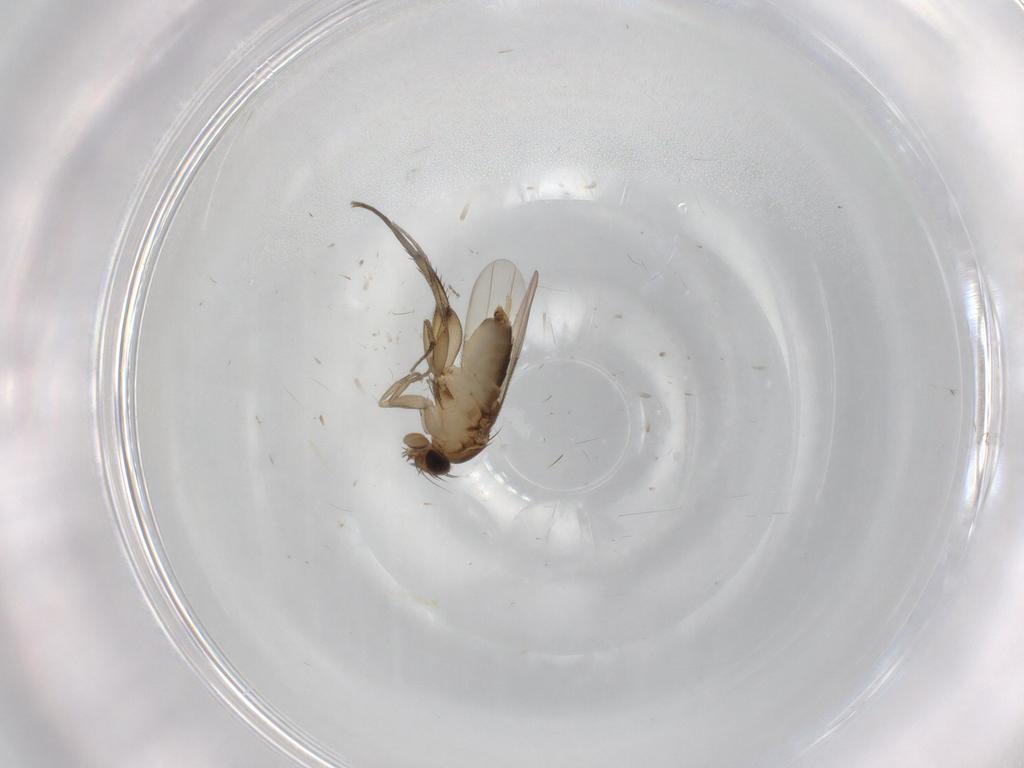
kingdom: Animalia
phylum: Arthropoda
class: Insecta
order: Diptera
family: Phoridae
